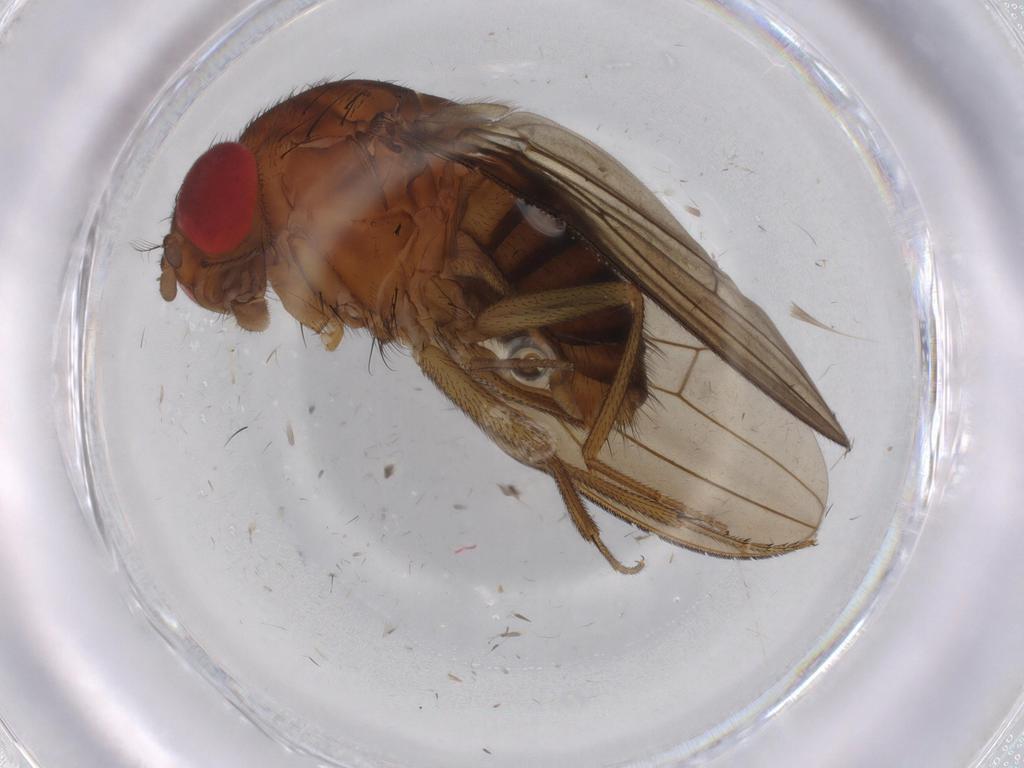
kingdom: Animalia
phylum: Arthropoda
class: Insecta
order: Diptera
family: Drosophilidae
